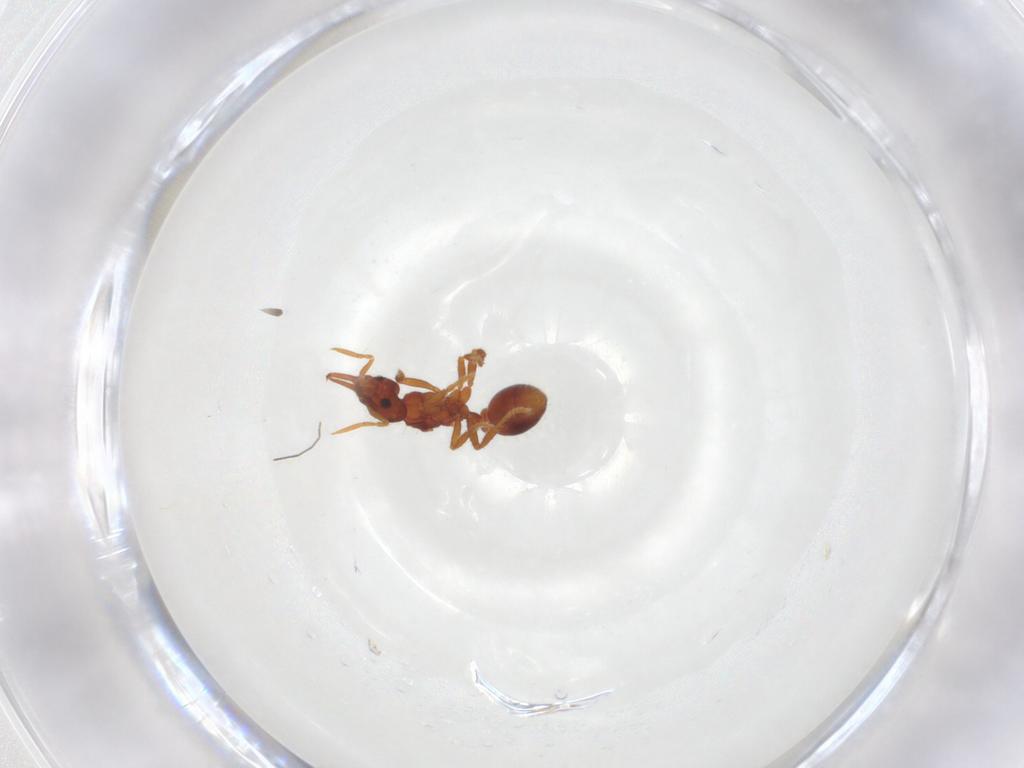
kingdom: Animalia
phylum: Arthropoda
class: Insecta
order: Hymenoptera
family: Formicidae
